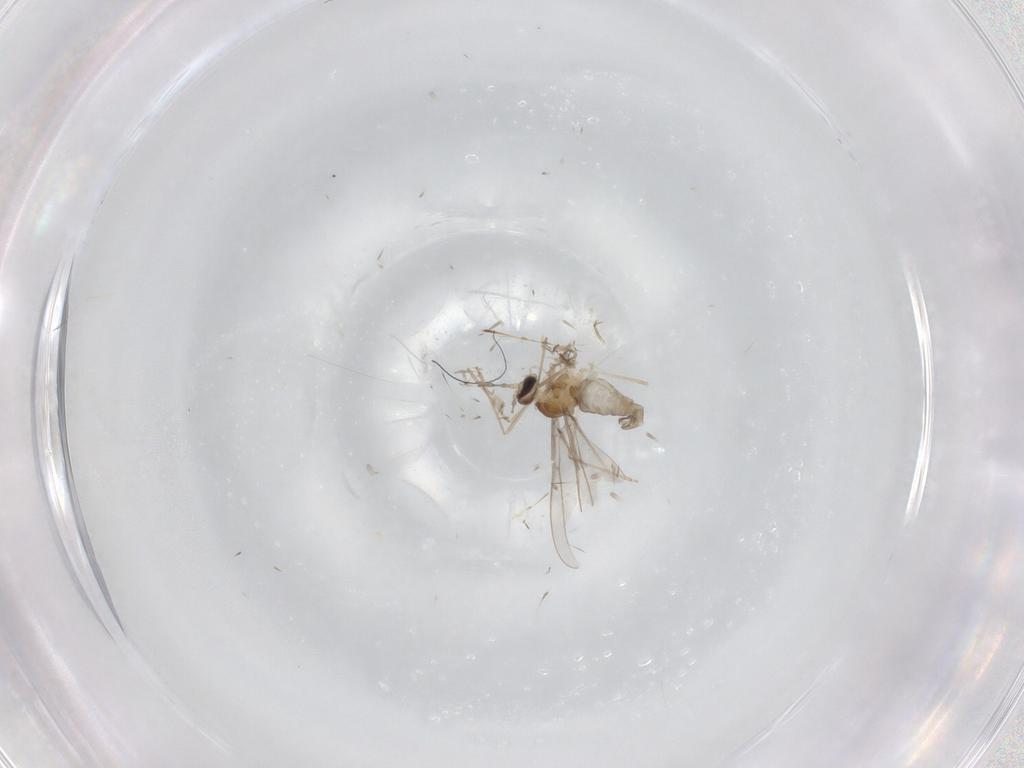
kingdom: Animalia
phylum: Arthropoda
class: Insecta
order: Diptera
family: Cecidomyiidae
